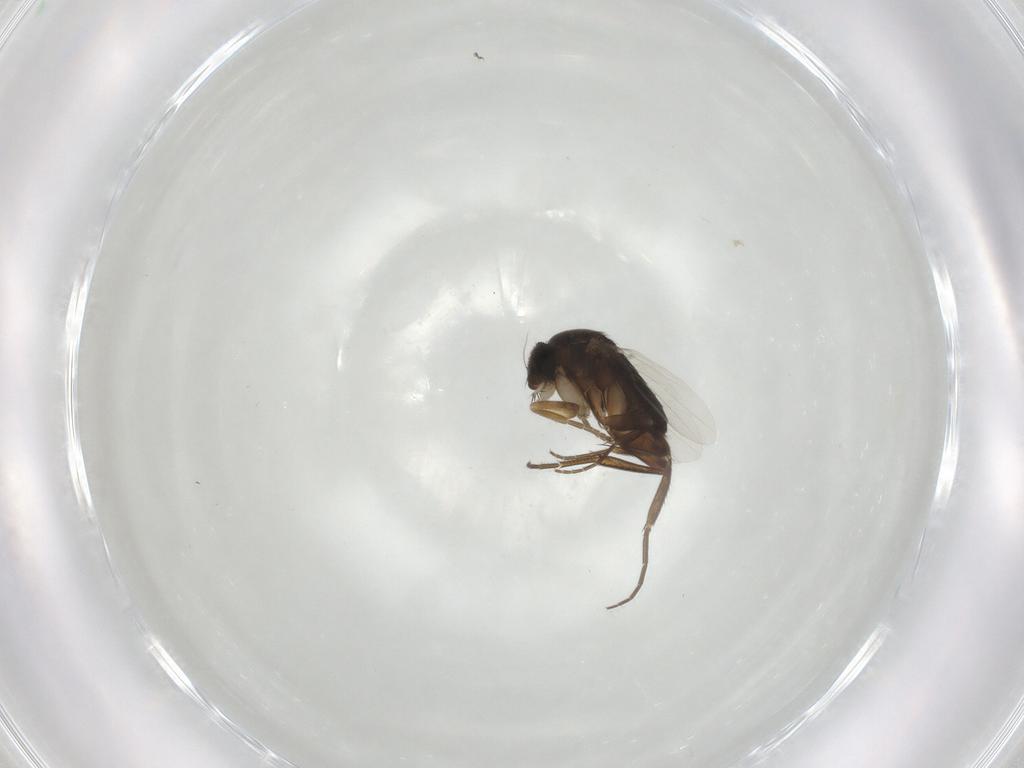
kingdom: Animalia
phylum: Arthropoda
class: Insecta
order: Diptera
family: Phoridae
